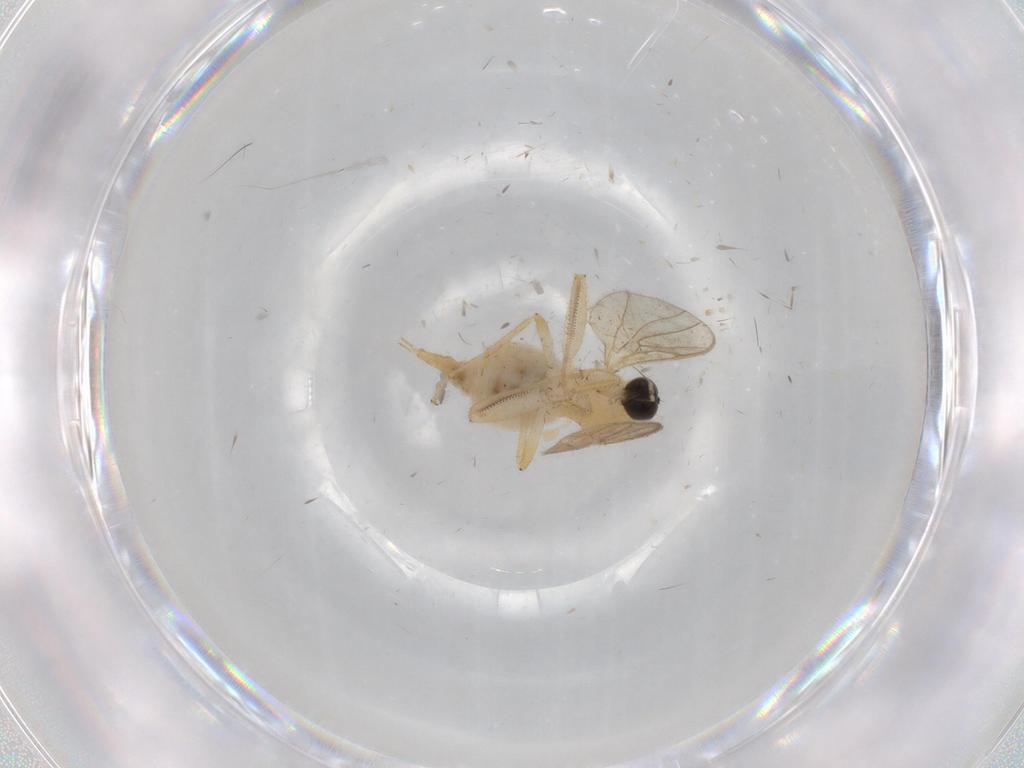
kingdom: Animalia
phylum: Arthropoda
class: Insecta
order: Diptera
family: Hybotidae
